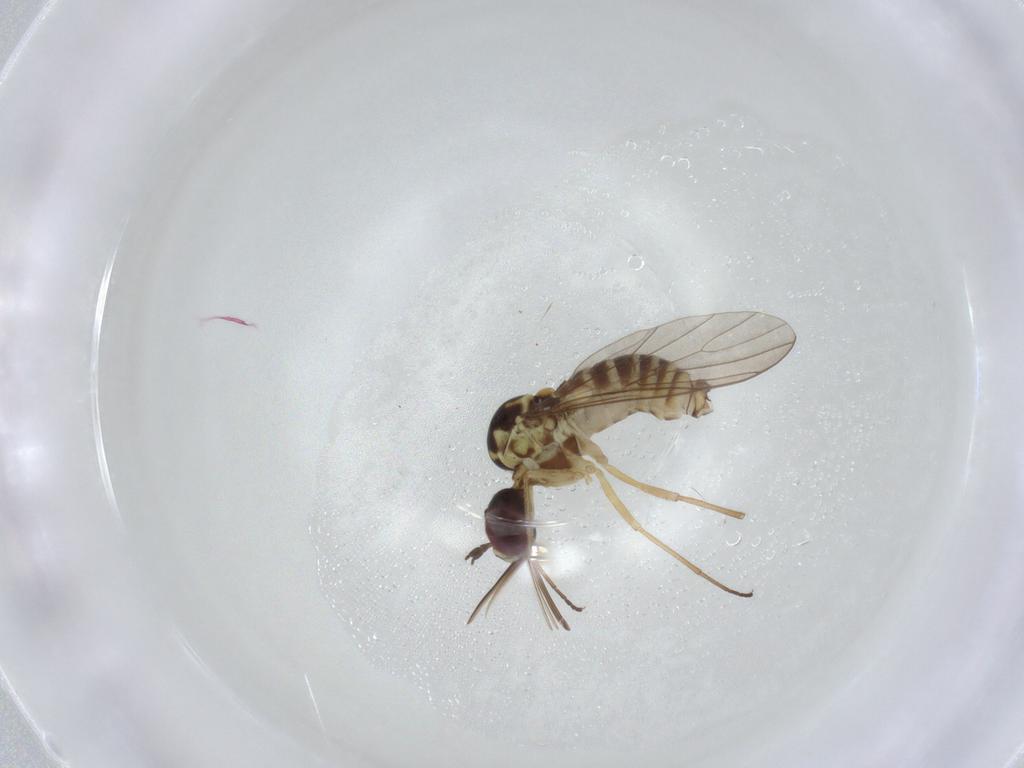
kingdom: Animalia
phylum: Arthropoda
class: Insecta
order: Diptera
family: Mythicomyiidae
